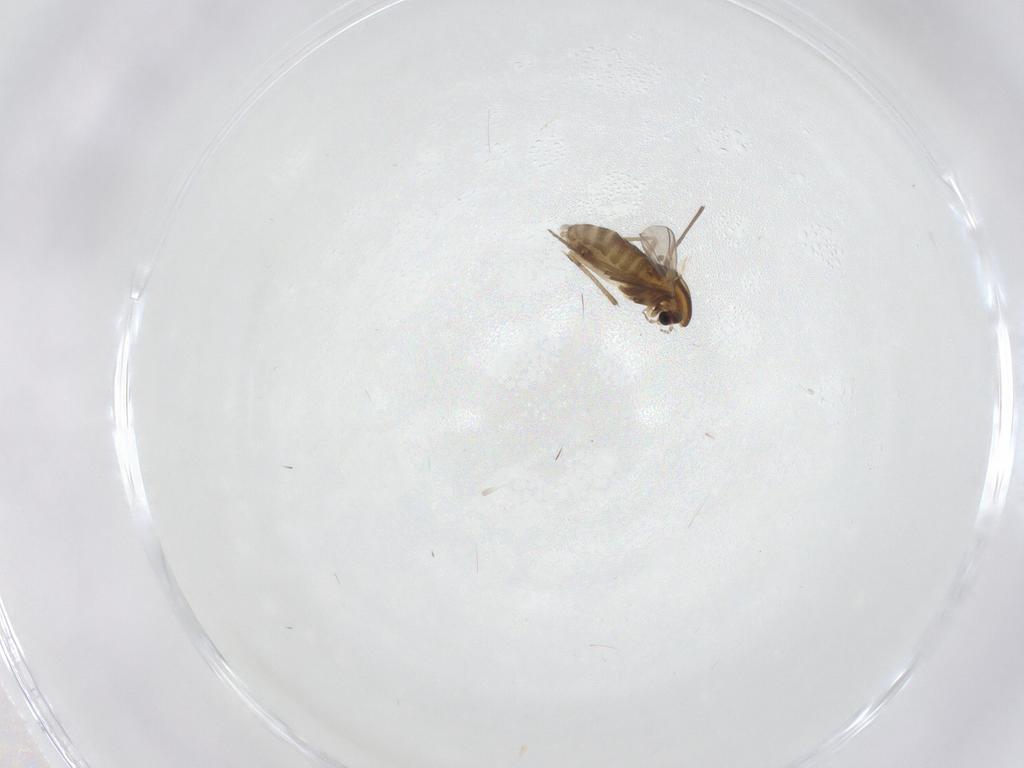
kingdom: Animalia
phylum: Arthropoda
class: Insecta
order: Diptera
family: Chironomidae
